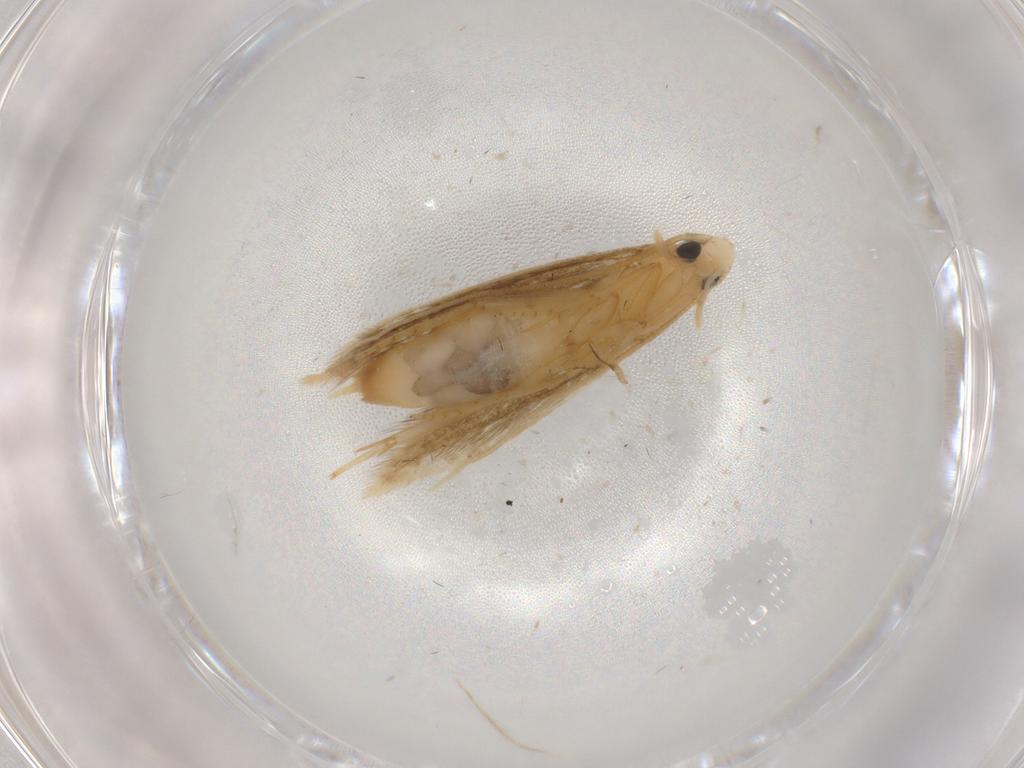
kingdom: Animalia
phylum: Arthropoda
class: Insecta
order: Lepidoptera
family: Tineidae
